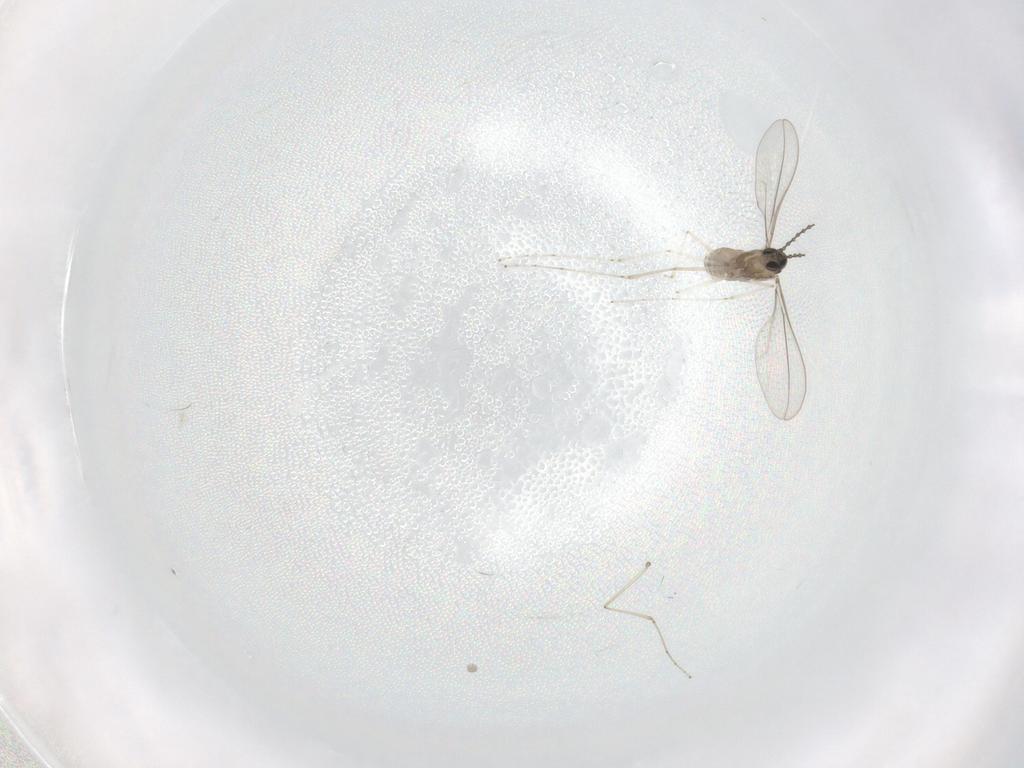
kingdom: Animalia
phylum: Arthropoda
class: Insecta
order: Diptera
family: Cecidomyiidae
